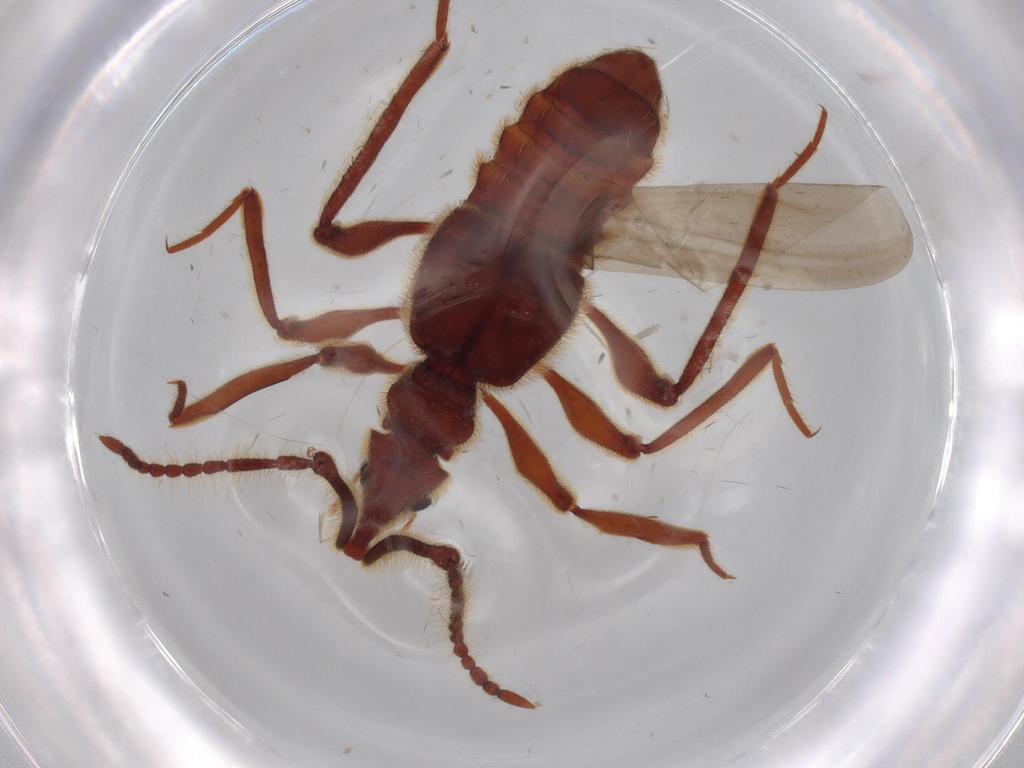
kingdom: Animalia
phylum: Arthropoda
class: Insecta
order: Coleoptera
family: Staphylinidae
